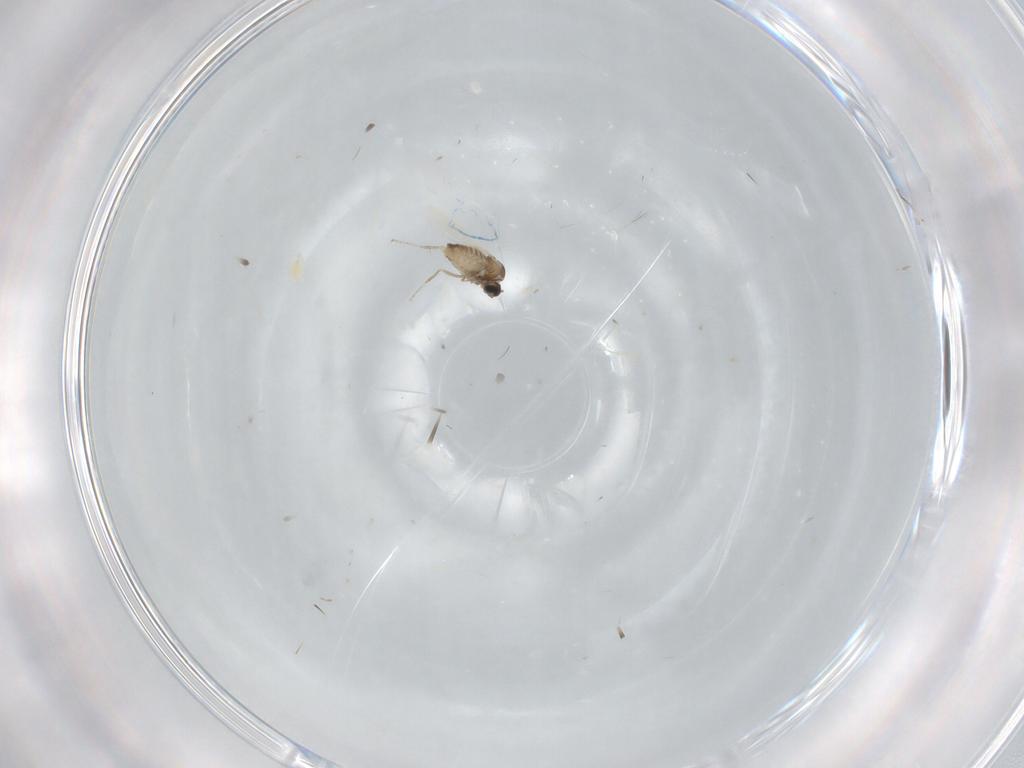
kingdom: Animalia
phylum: Arthropoda
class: Insecta
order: Diptera
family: Cecidomyiidae
